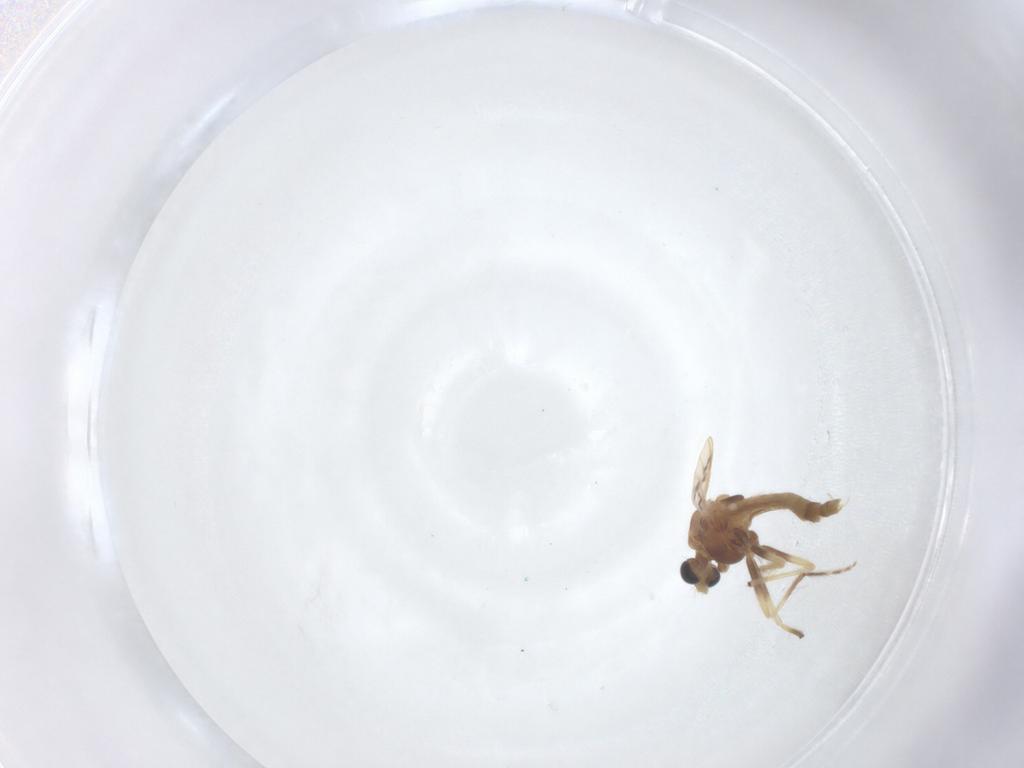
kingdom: Animalia
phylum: Arthropoda
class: Insecta
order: Diptera
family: Chironomidae
